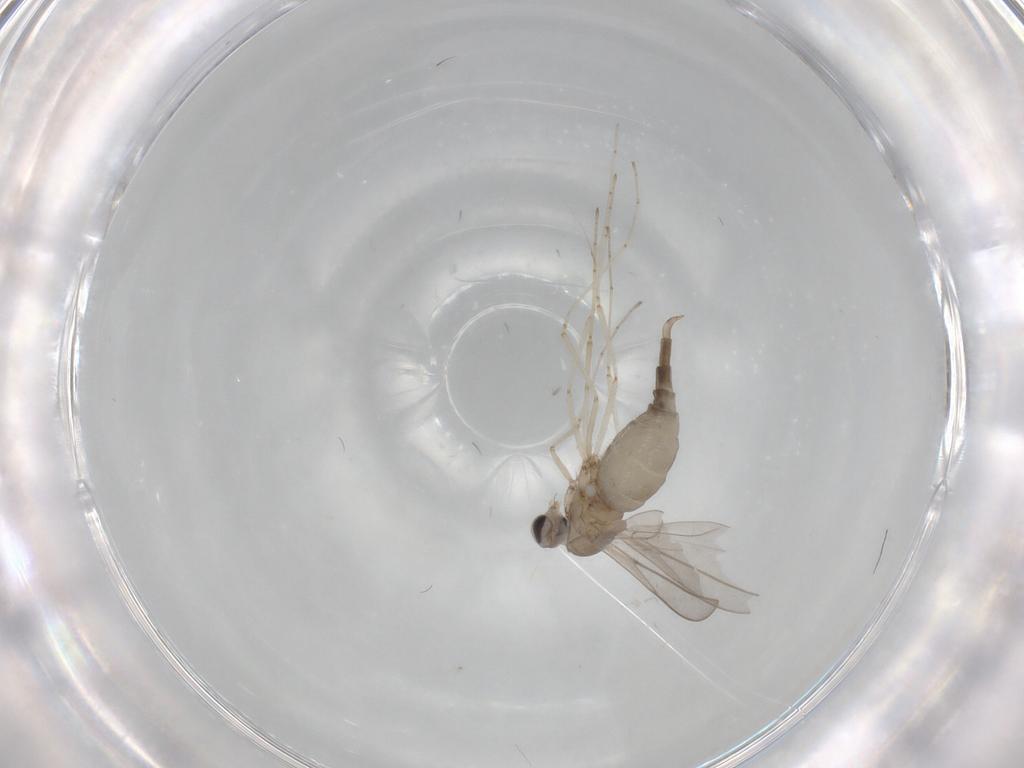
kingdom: Animalia
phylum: Arthropoda
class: Insecta
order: Diptera
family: Cecidomyiidae
